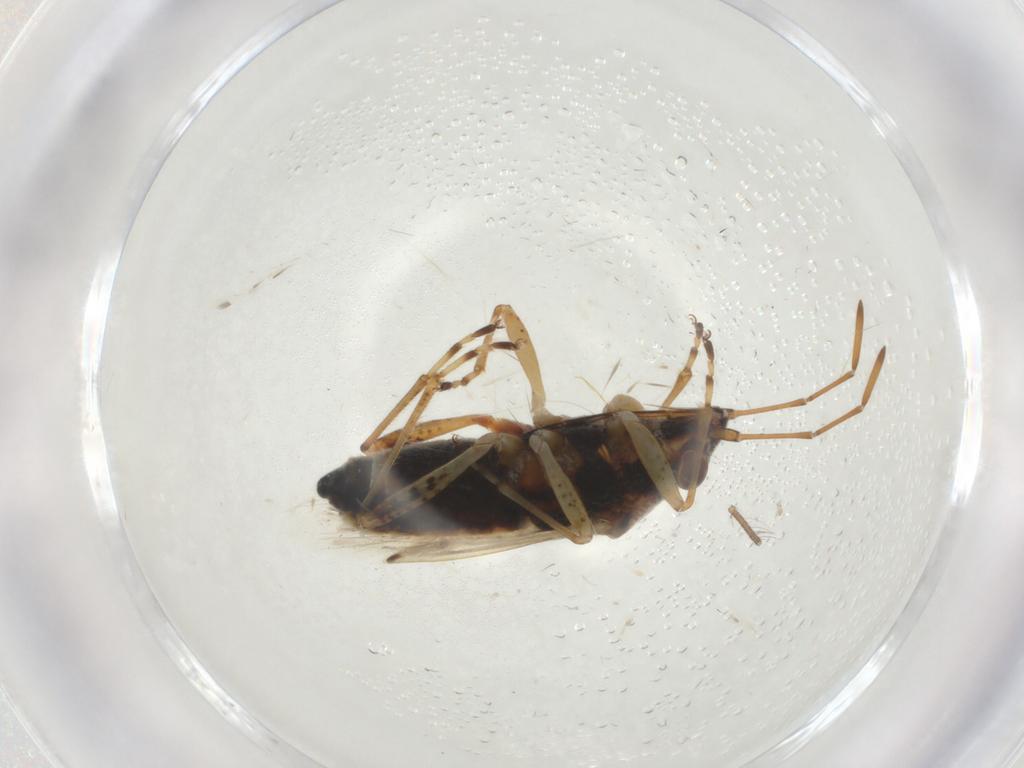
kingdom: Animalia
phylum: Arthropoda
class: Insecta
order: Hemiptera
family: Lygaeidae
